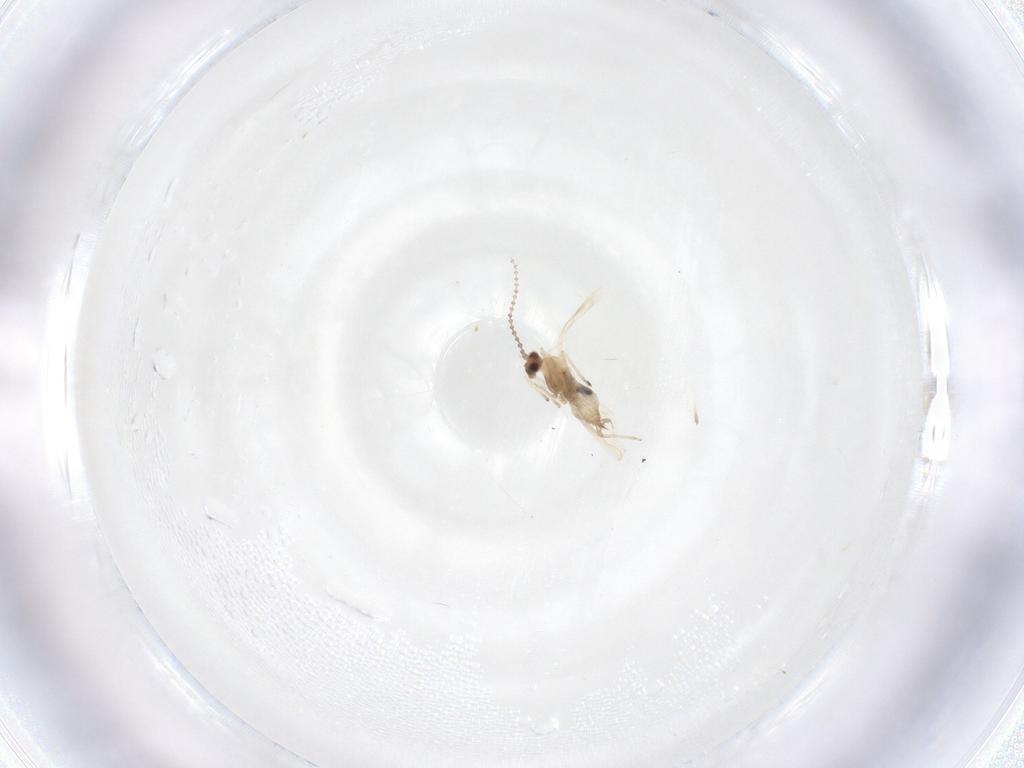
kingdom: Animalia
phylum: Arthropoda
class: Insecta
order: Diptera
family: Cecidomyiidae
